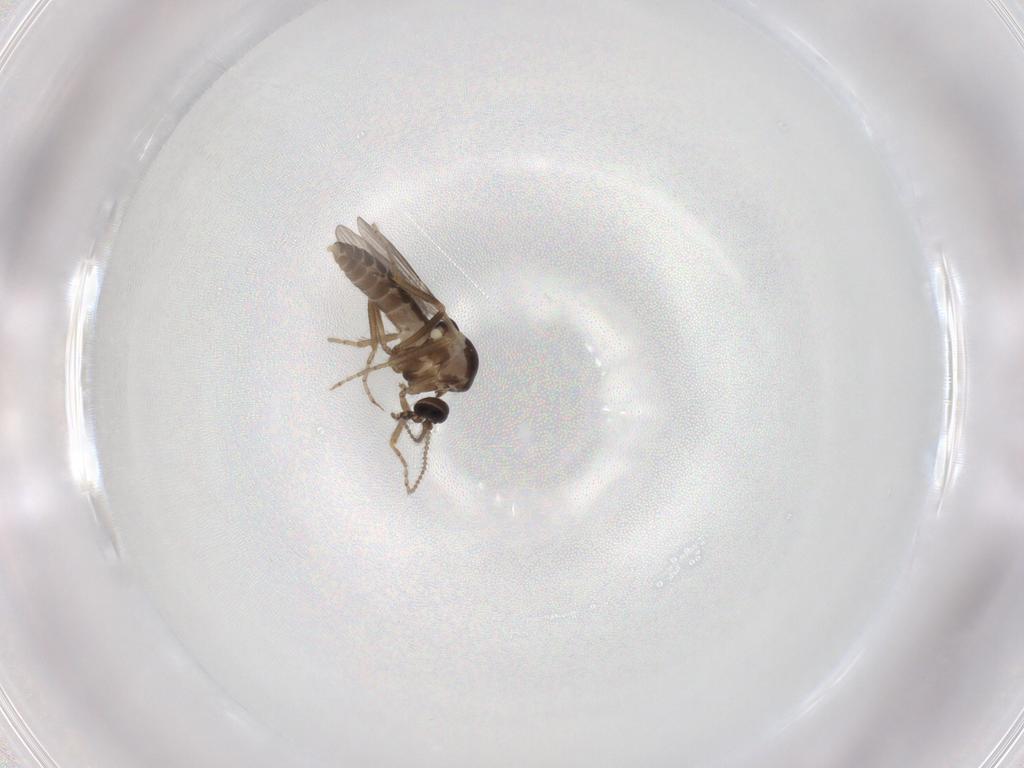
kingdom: Animalia
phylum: Arthropoda
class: Insecta
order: Diptera
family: Ceratopogonidae
